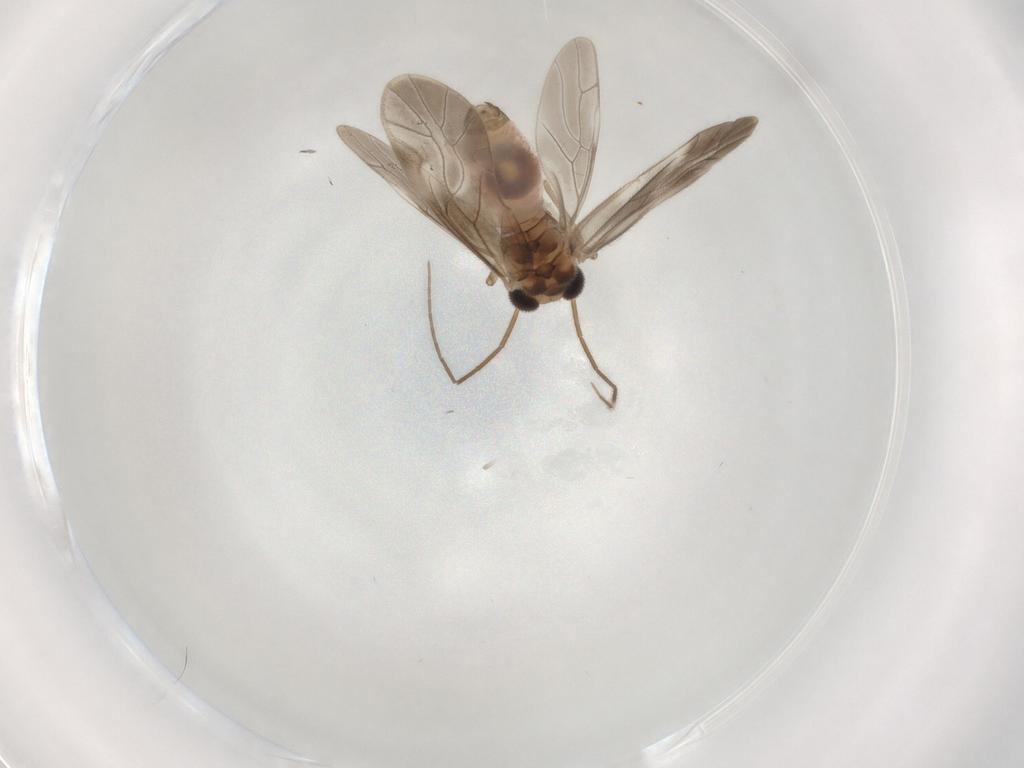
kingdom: Animalia
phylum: Arthropoda
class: Insecta
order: Psocodea
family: Caeciliusidae
